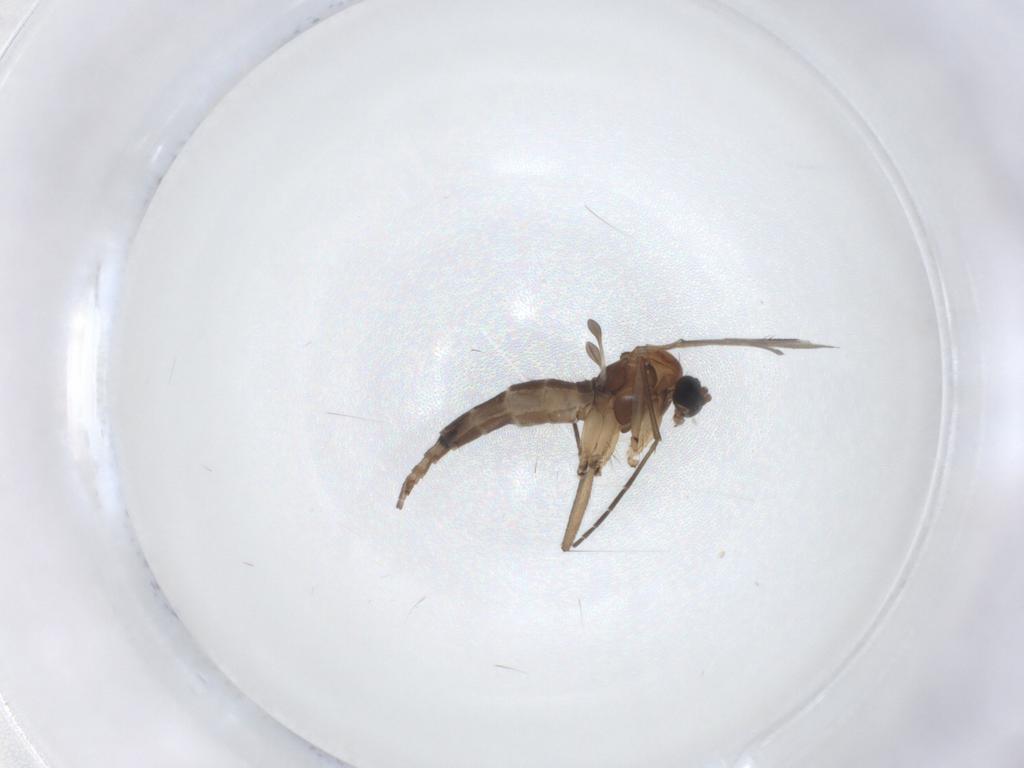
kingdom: Animalia
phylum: Arthropoda
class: Insecta
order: Diptera
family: Sciaridae
